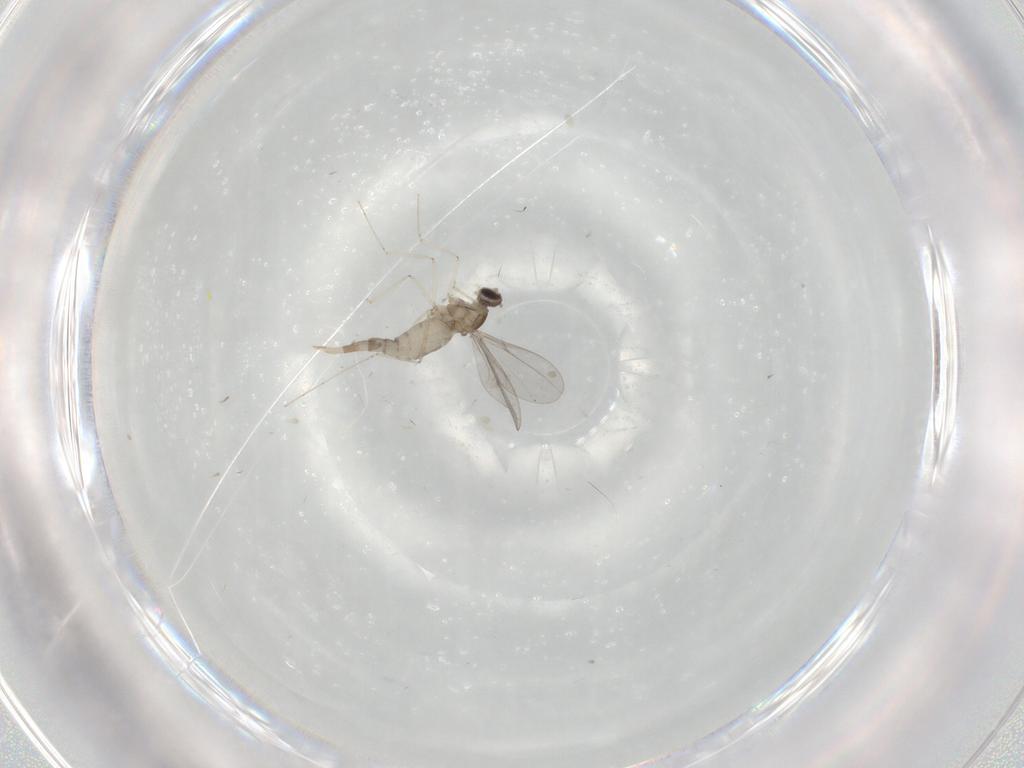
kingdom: Animalia
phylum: Arthropoda
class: Insecta
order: Diptera
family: Cecidomyiidae
